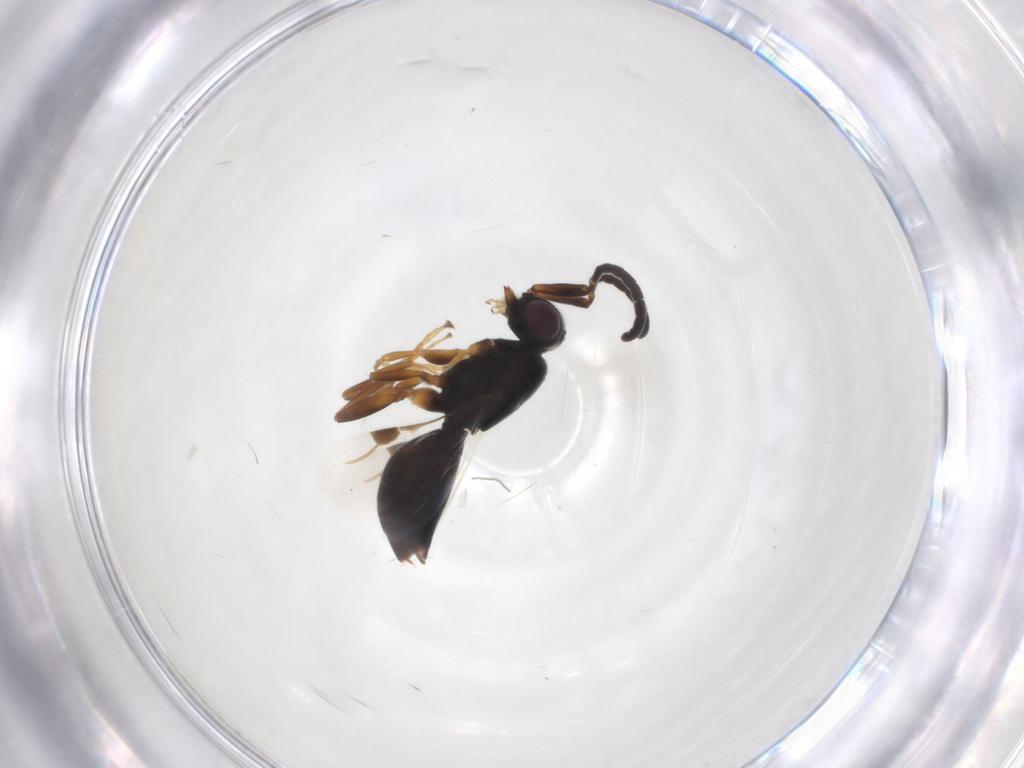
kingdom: Animalia
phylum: Arthropoda
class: Insecta
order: Hymenoptera
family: Megaspilidae
